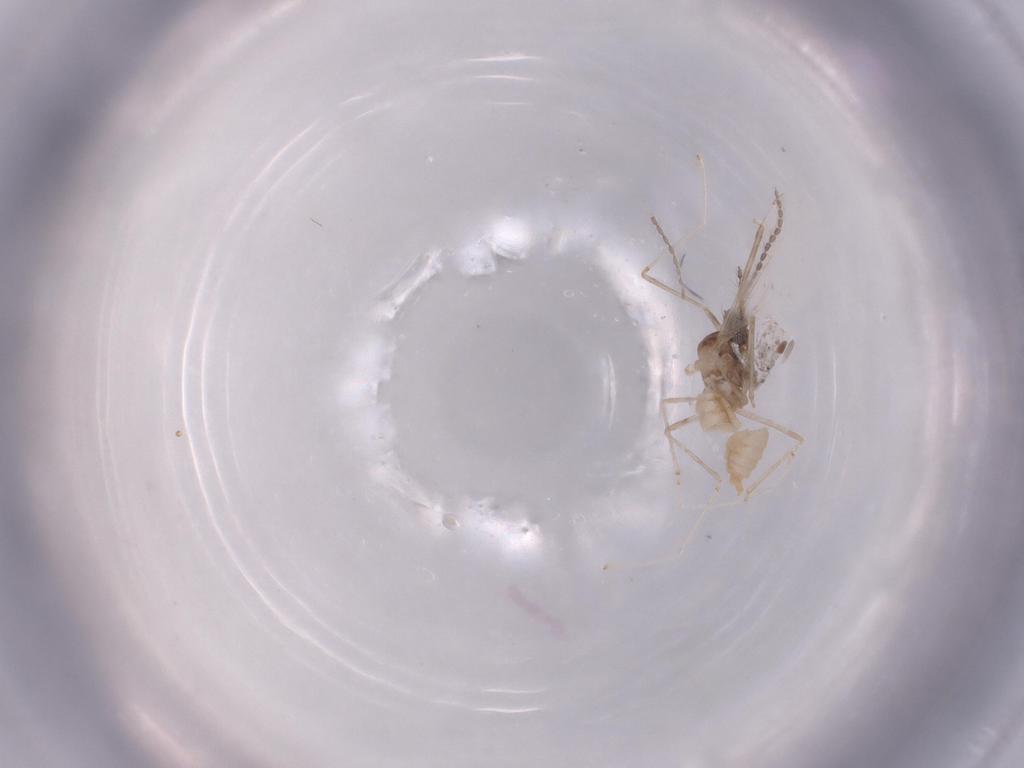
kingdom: Animalia
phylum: Arthropoda
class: Insecta
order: Diptera
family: Cecidomyiidae
